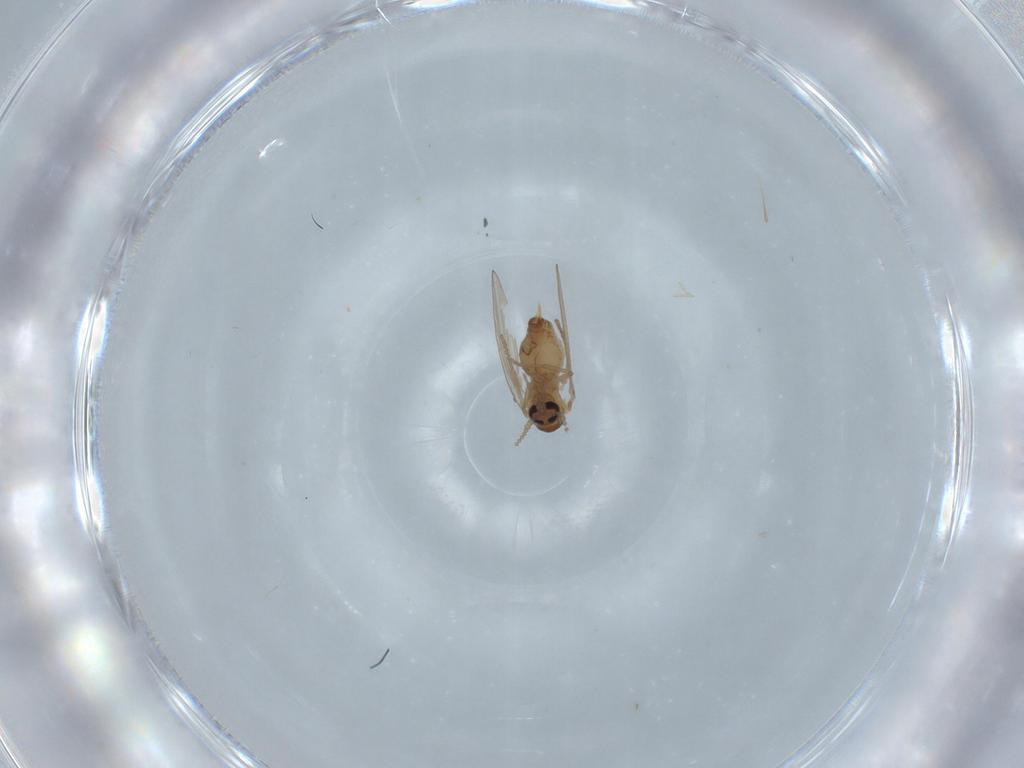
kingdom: Animalia
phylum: Arthropoda
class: Insecta
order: Diptera
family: Psychodidae
